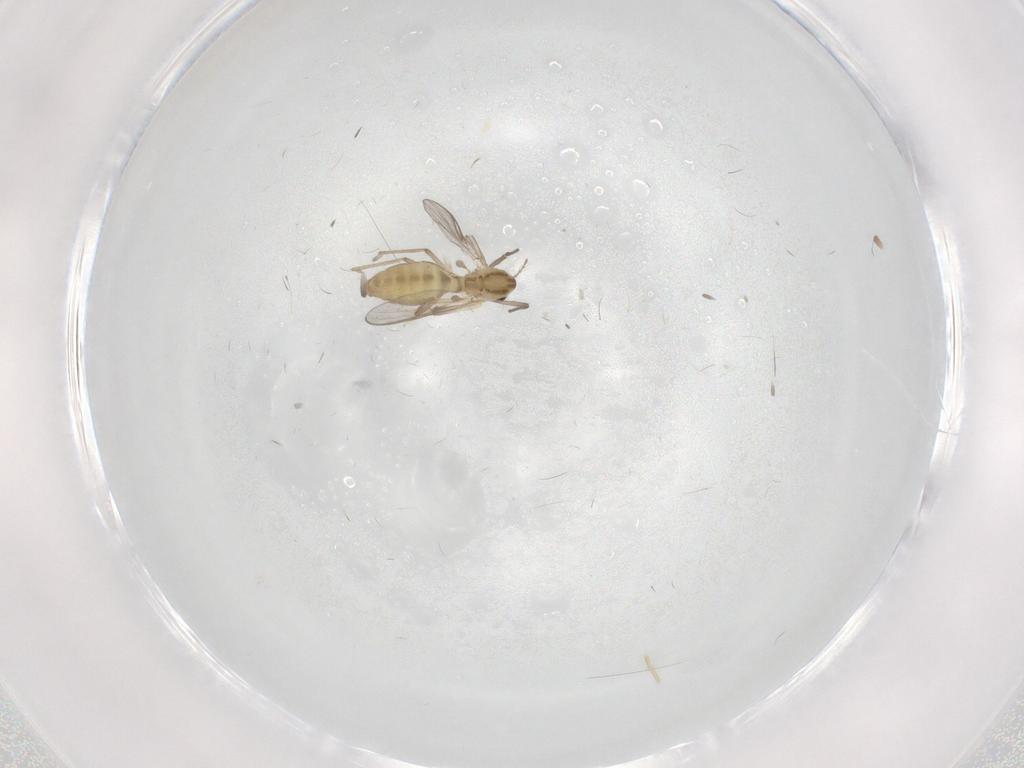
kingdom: Animalia
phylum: Arthropoda
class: Insecta
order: Diptera
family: Cecidomyiidae
